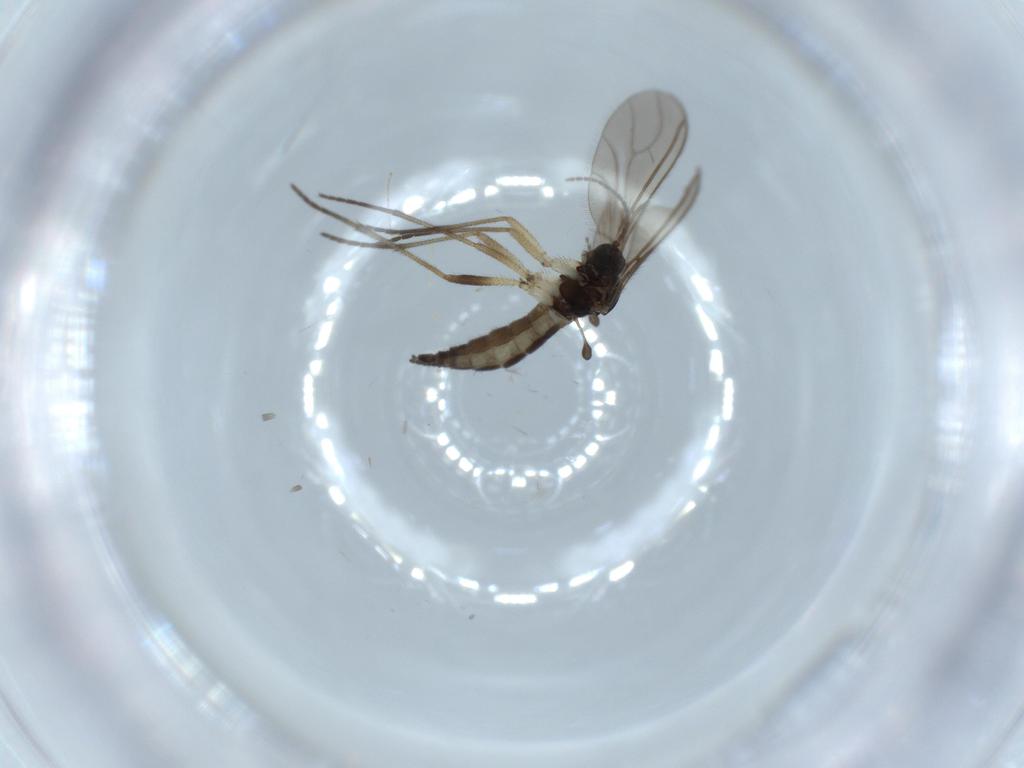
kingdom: Animalia
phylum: Arthropoda
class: Insecta
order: Diptera
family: Sciaridae
